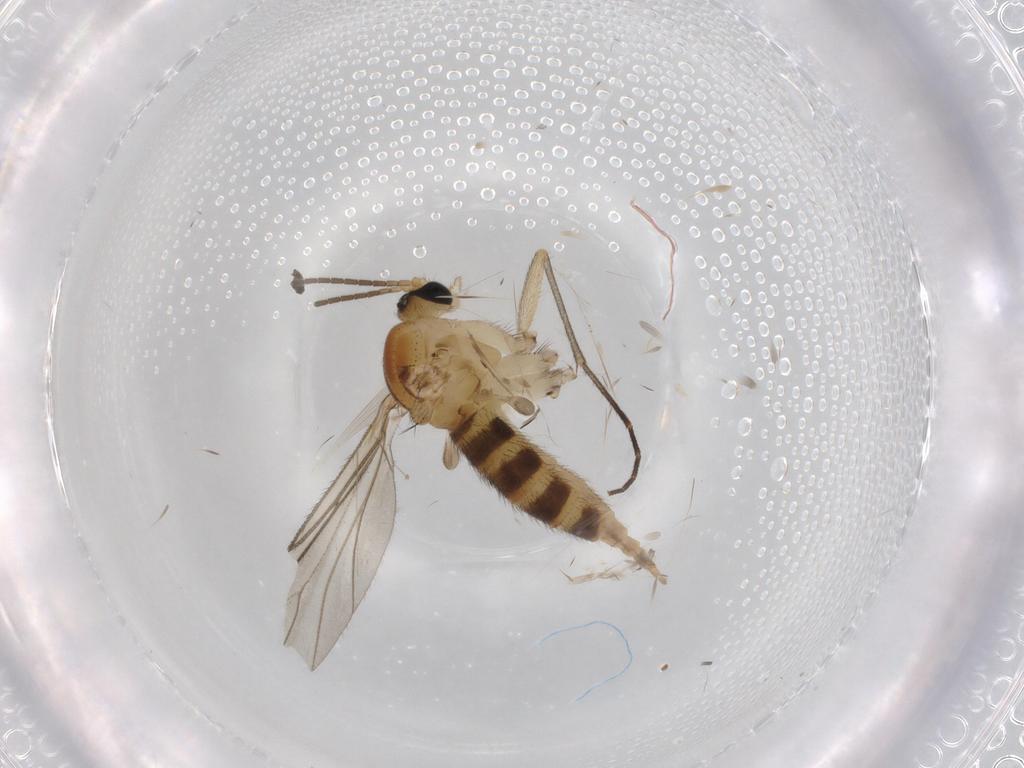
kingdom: Animalia
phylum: Arthropoda
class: Insecta
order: Diptera
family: Sciaridae
